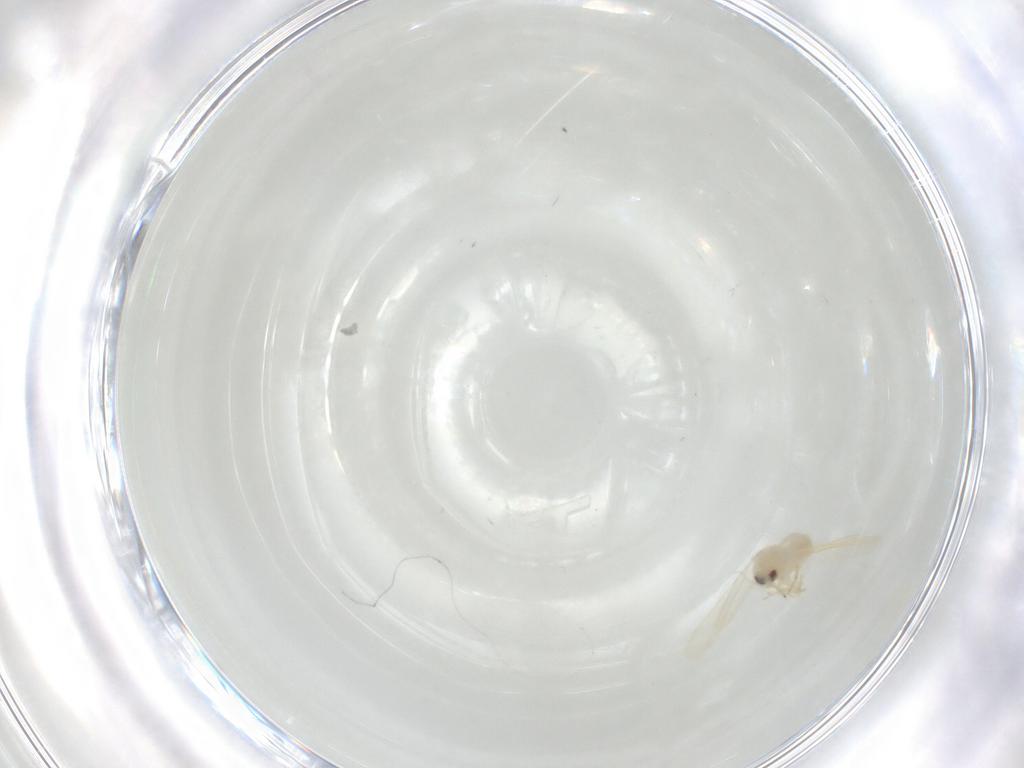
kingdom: Animalia
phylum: Arthropoda
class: Insecta
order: Hemiptera
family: Aleyrodidae
